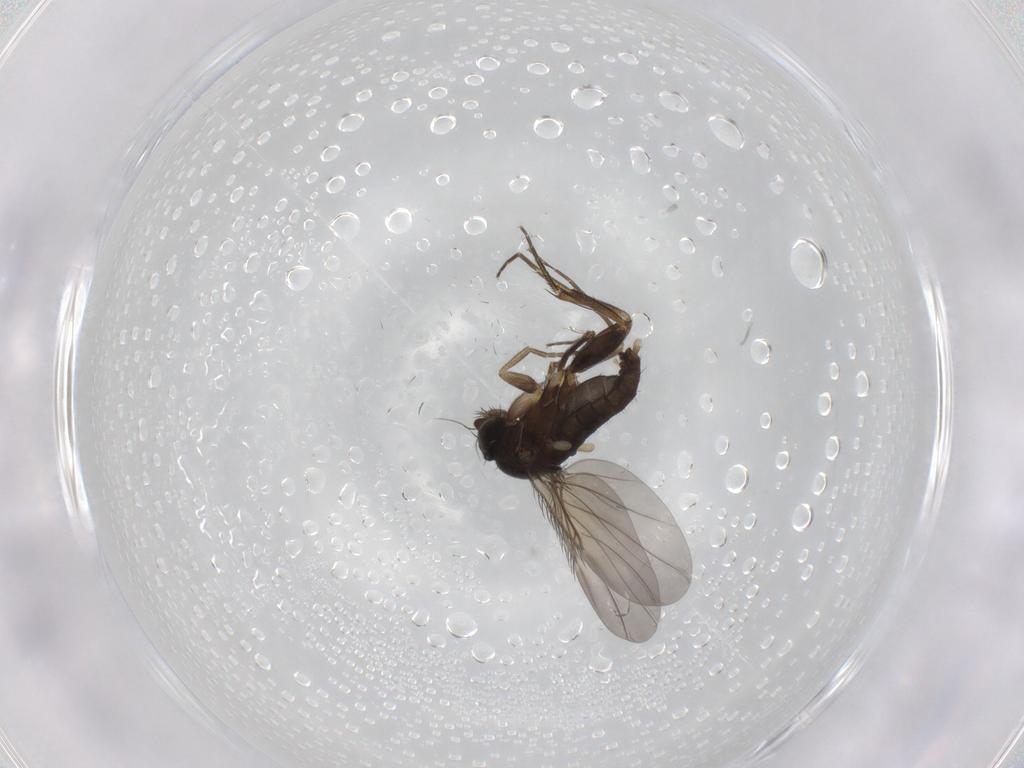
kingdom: Animalia
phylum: Arthropoda
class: Insecta
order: Diptera
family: Phoridae
